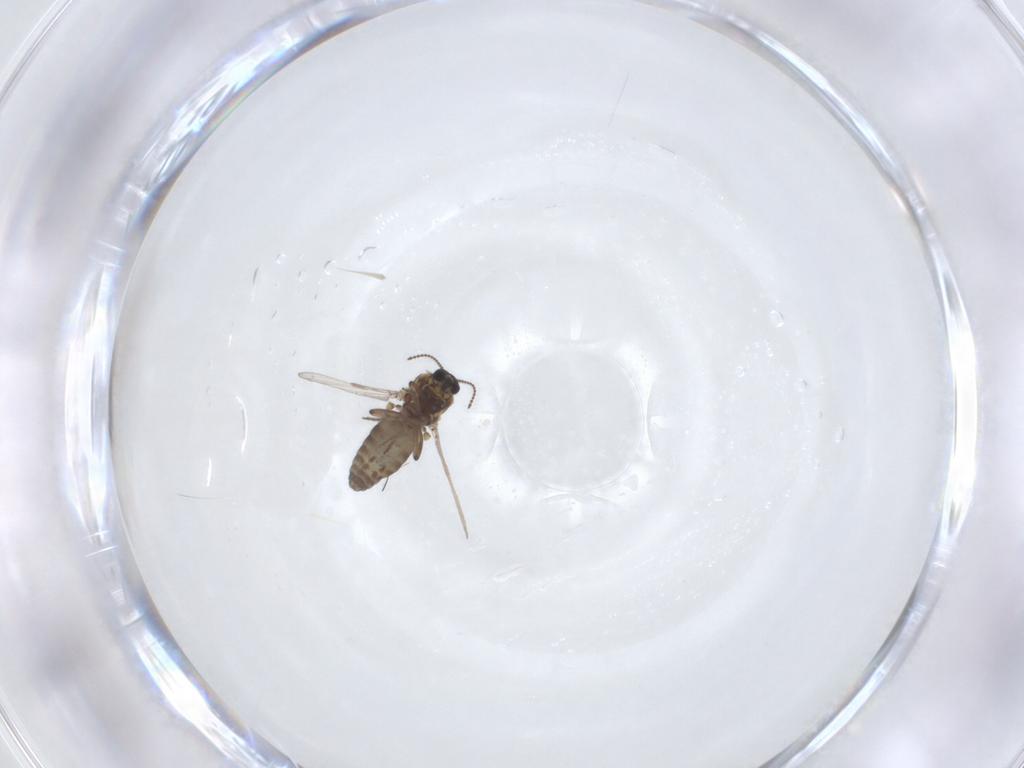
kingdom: Animalia
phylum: Arthropoda
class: Insecta
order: Diptera
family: Ceratopogonidae
